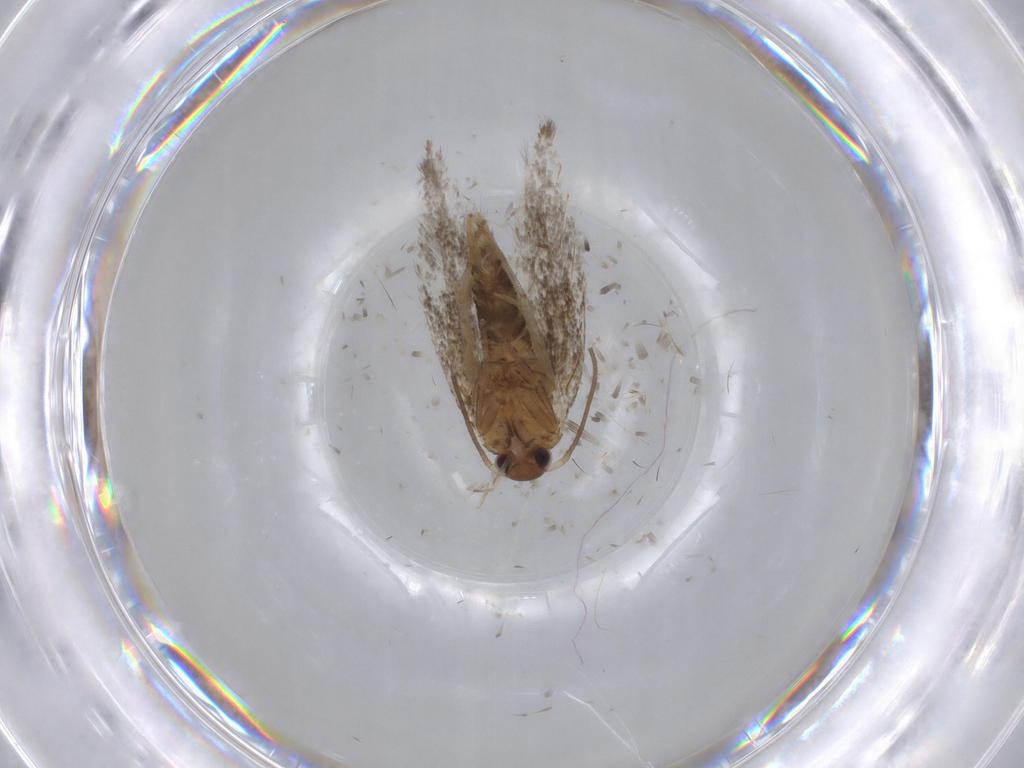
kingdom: Animalia
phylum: Arthropoda
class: Insecta
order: Lepidoptera
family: Elachistidae
